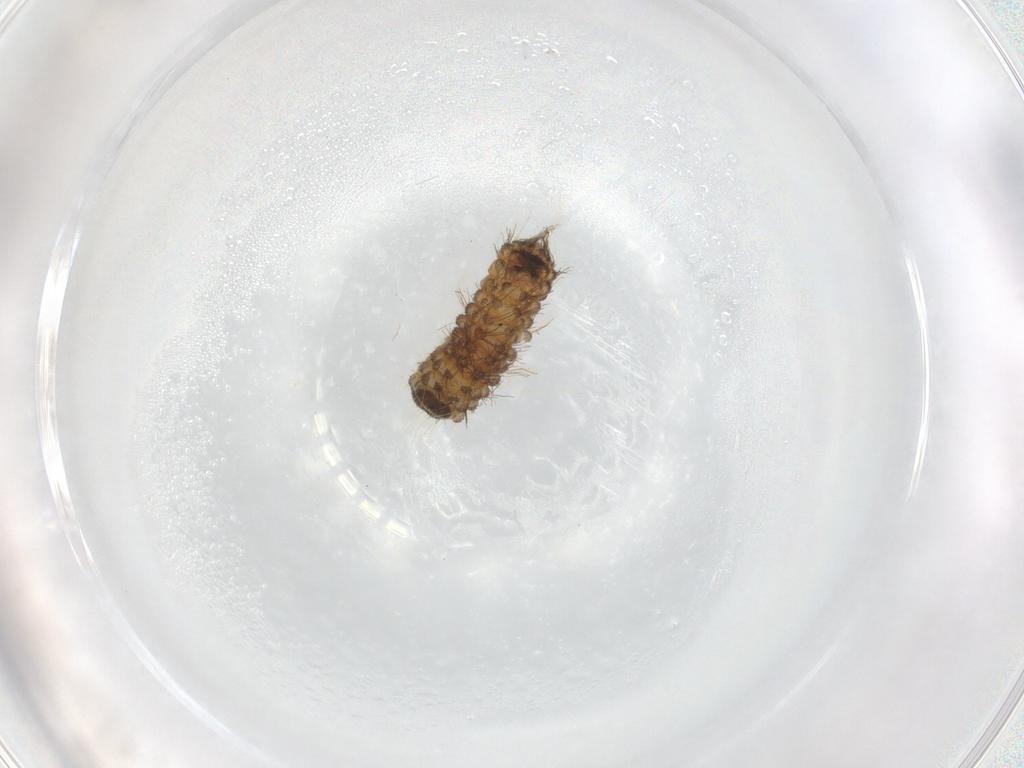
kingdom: Animalia
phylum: Arthropoda
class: Insecta
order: Lepidoptera
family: Nolidae
